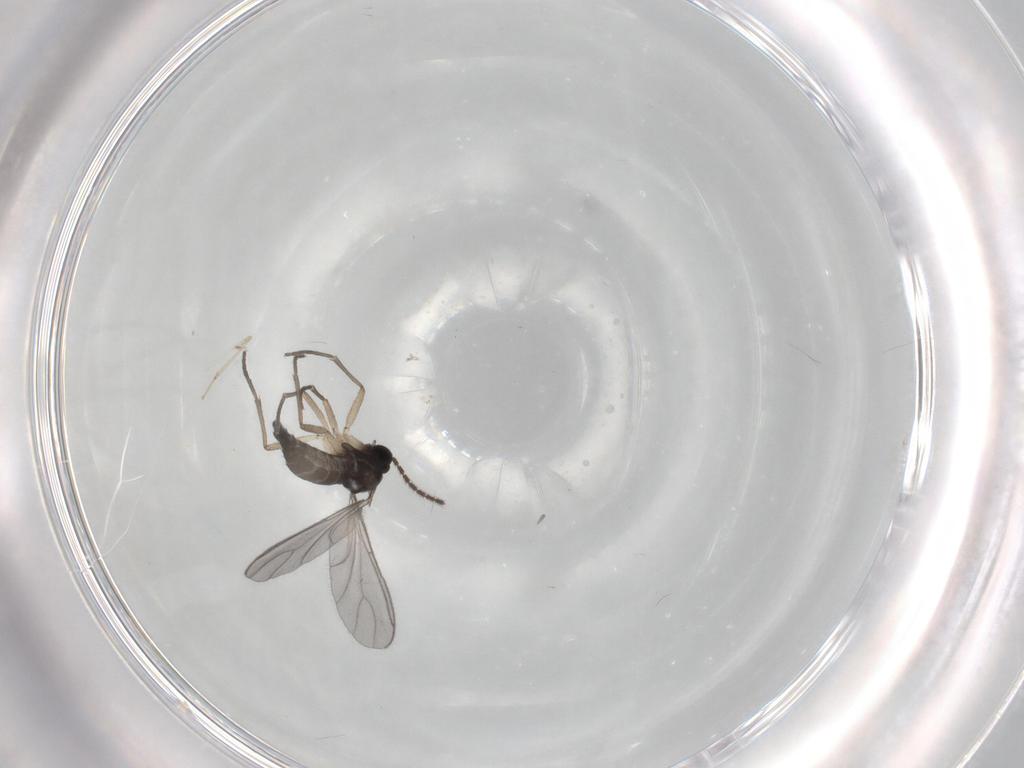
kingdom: Animalia
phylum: Arthropoda
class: Insecta
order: Diptera
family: Sciaridae
